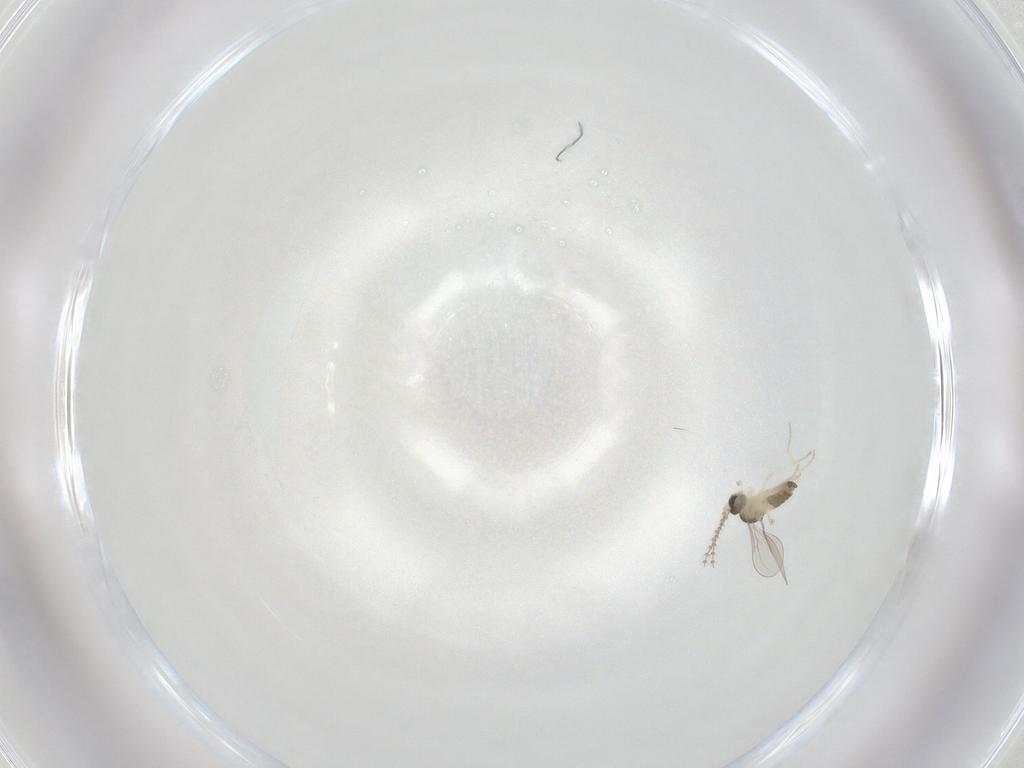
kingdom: Animalia
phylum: Arthropoda
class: Insecta
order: Diptera
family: Cecidomyiidae
